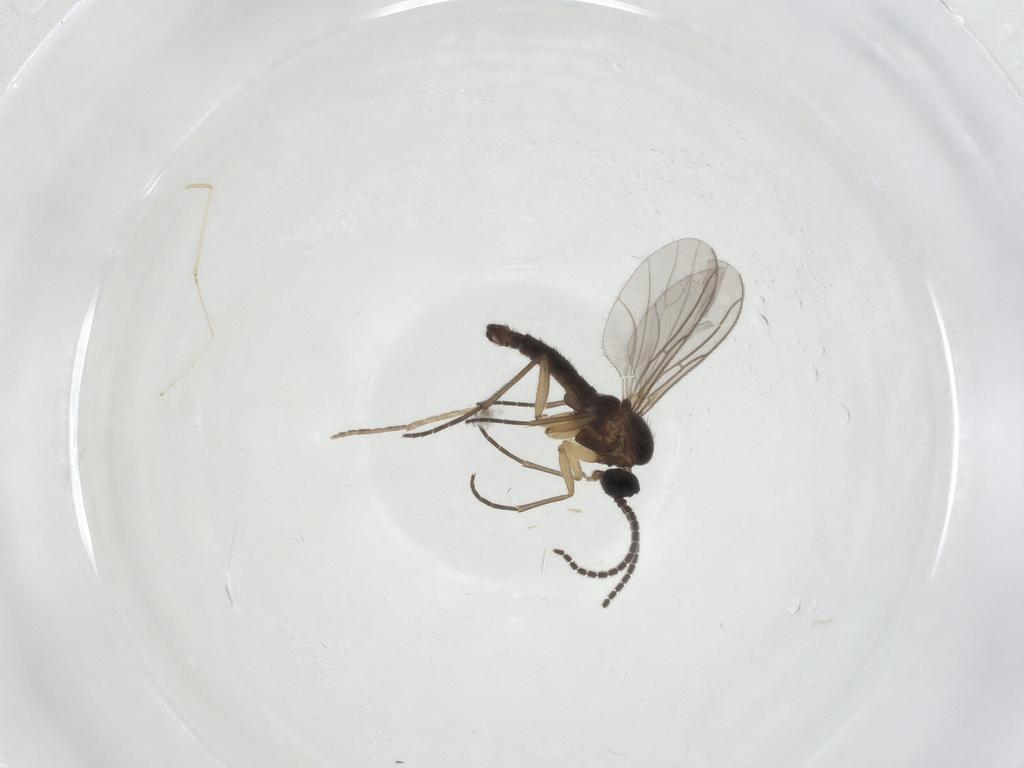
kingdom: Animalia
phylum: Arthropoda
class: Insecta
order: Diptera
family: Sciaridae
